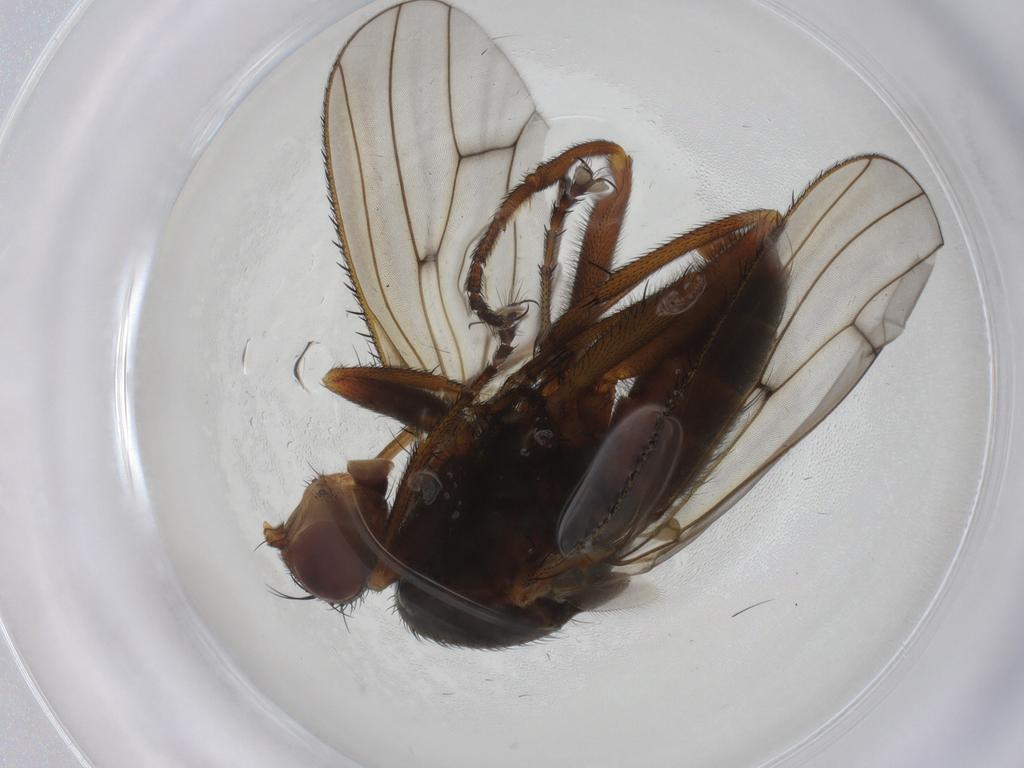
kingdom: Animalia
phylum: Arthropoda
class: Insecta
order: Diptera
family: Heleomyzidae
